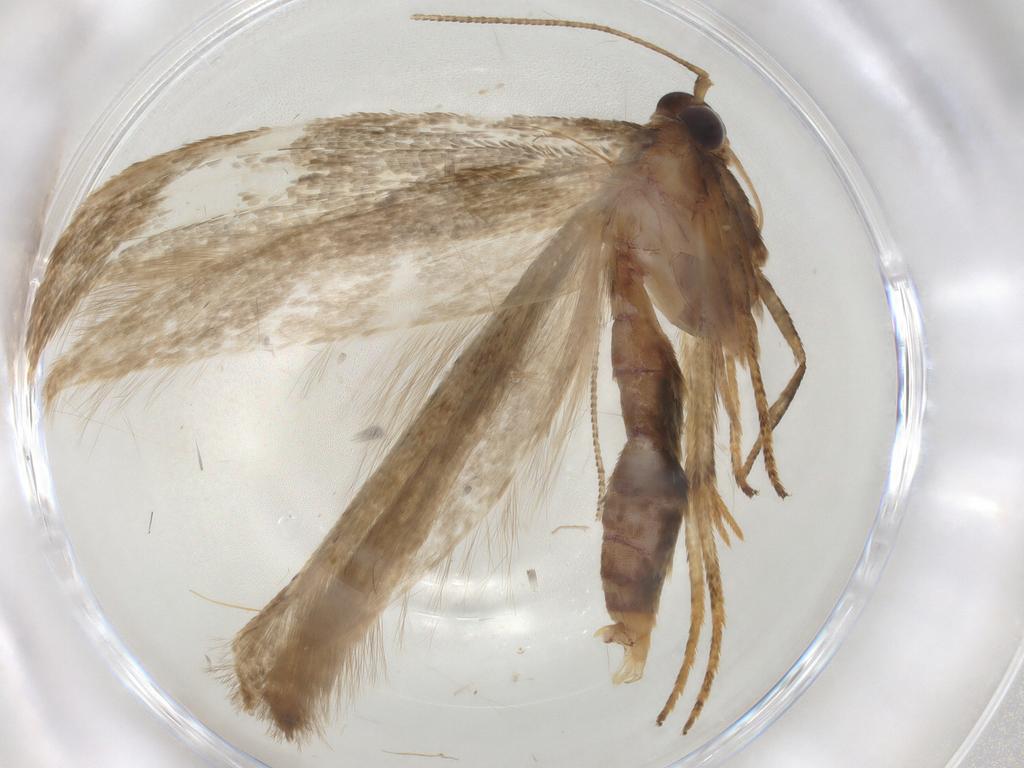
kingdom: Animalia
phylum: Arthropoda
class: Insecta
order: Lepidoptera
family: Blastobasidae
